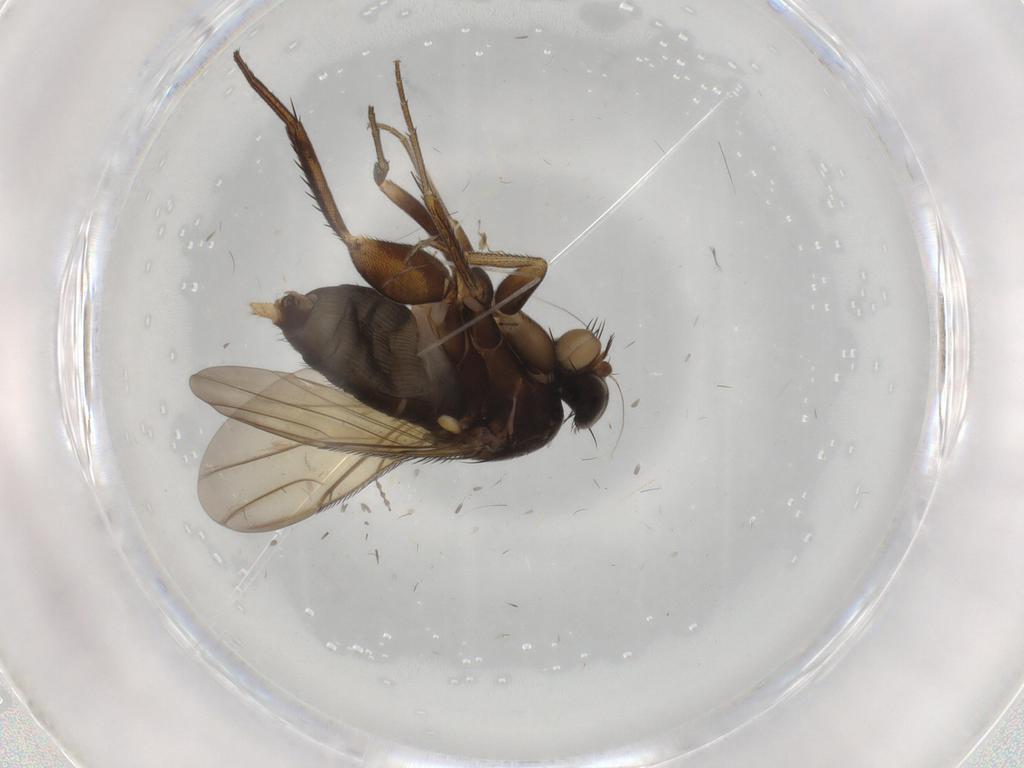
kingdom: Animalia
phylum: Arthropoda
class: Insecta
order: Diptera
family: Phoridae
